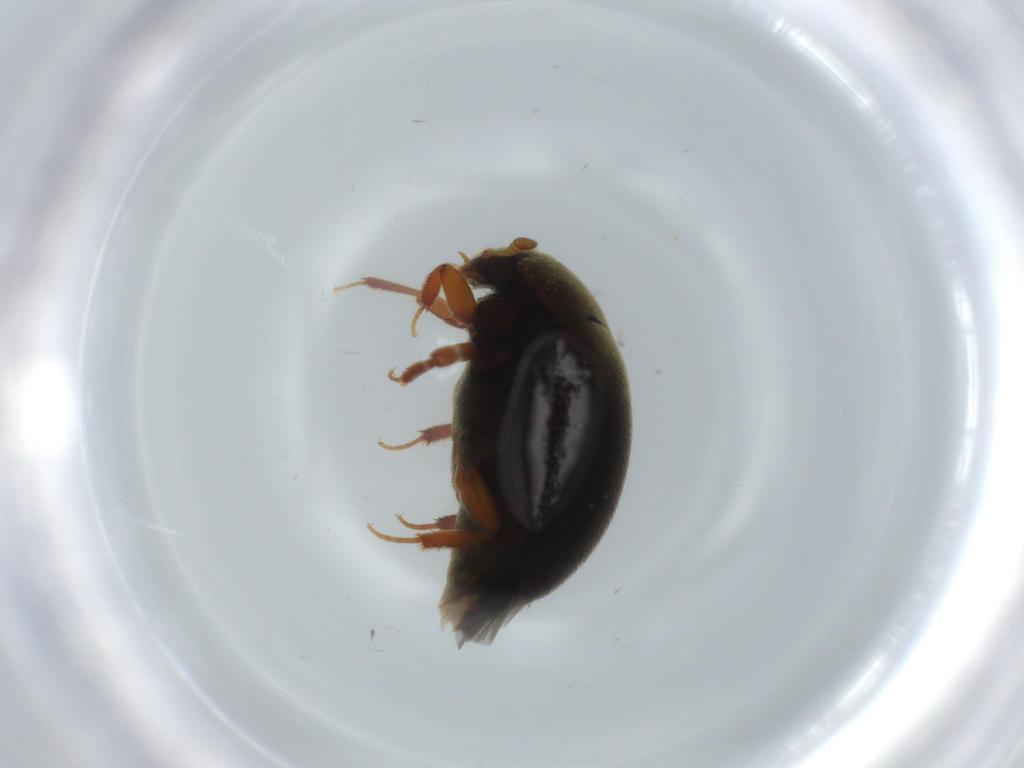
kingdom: Animalia
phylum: Arthropoda
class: Insecta
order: Coleoptera
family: Dermestidae
